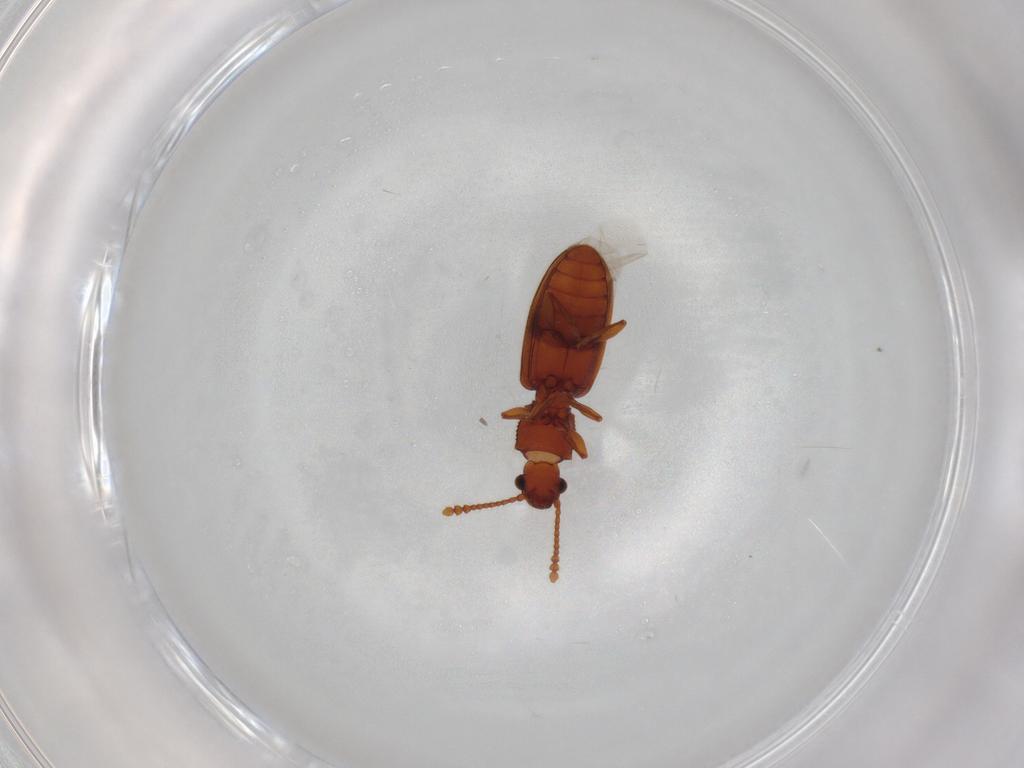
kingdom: Animalia
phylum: Arthropoda
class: Insecta
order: Coleoptera
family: Silvanidae
